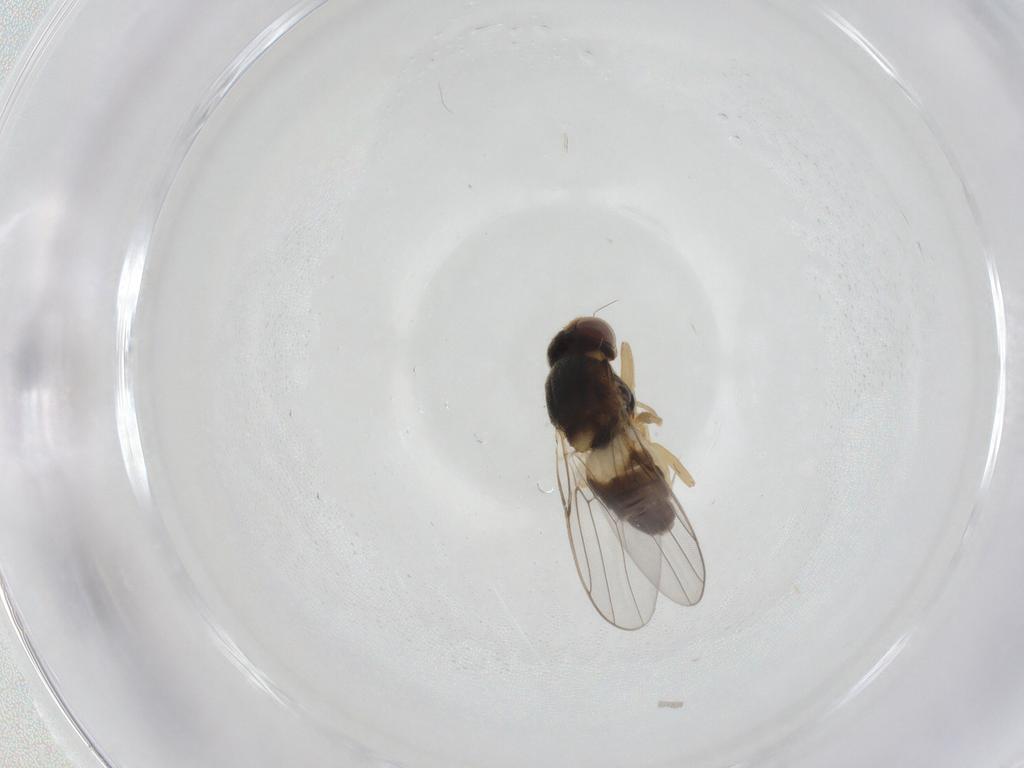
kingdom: Animalia
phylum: Arthropoda
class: Insecta
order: Diptera
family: Chloropidae
